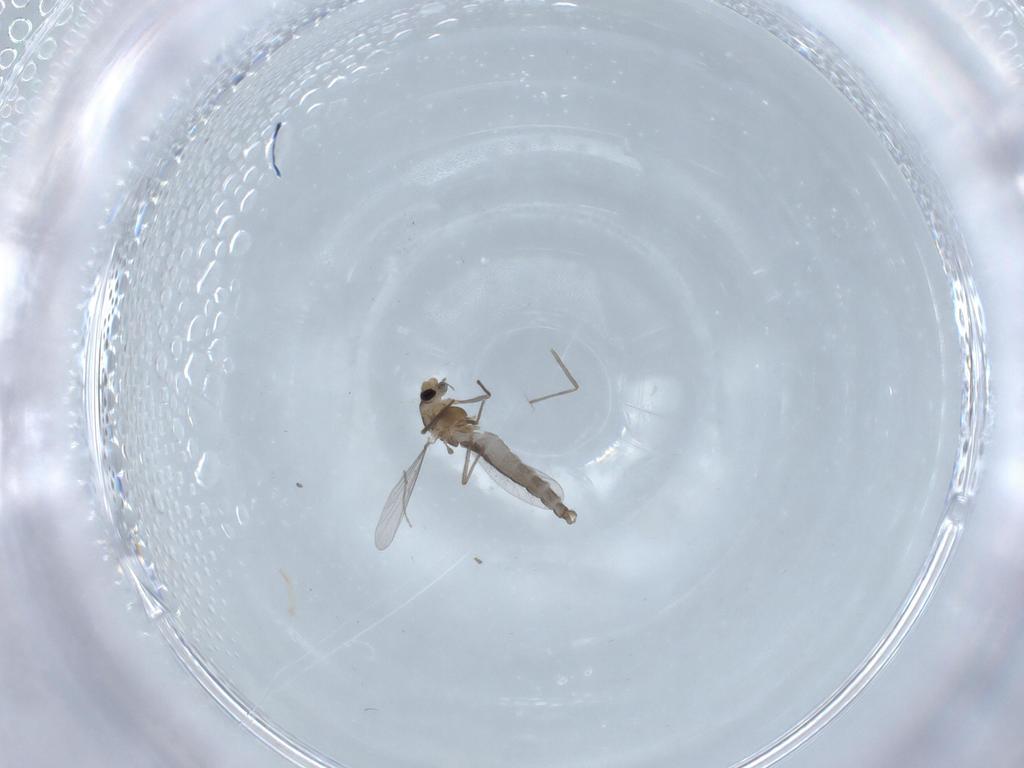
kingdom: Animalia
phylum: Arthropoda
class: Insecta
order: Diptera
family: Chironomidae
